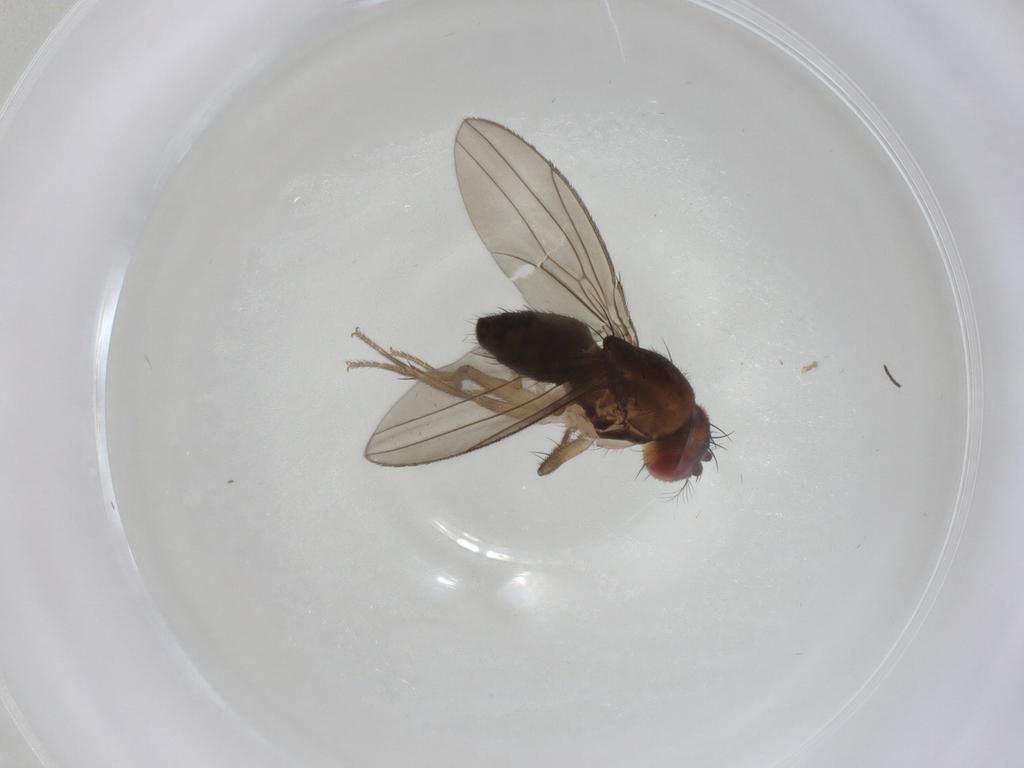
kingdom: Animalia
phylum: Arthropoda
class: Insecta
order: Diptera
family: Drosophilidae
